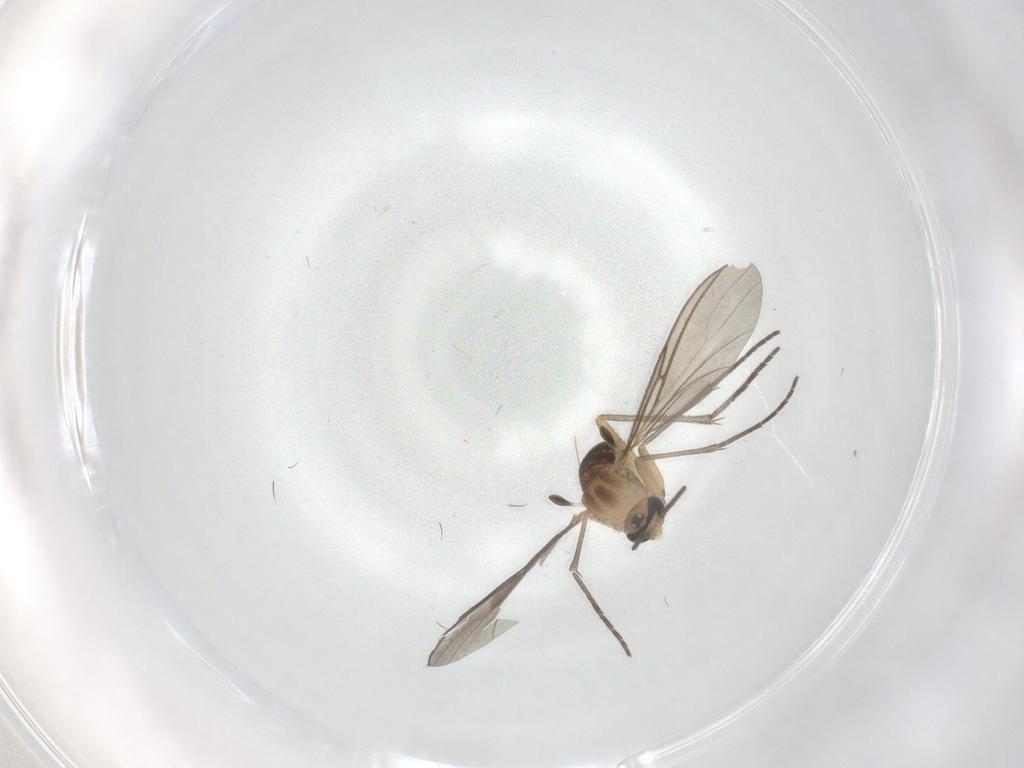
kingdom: Animalia
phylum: Arthropoda
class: Insecta
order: Diptera
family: Sciaridae
